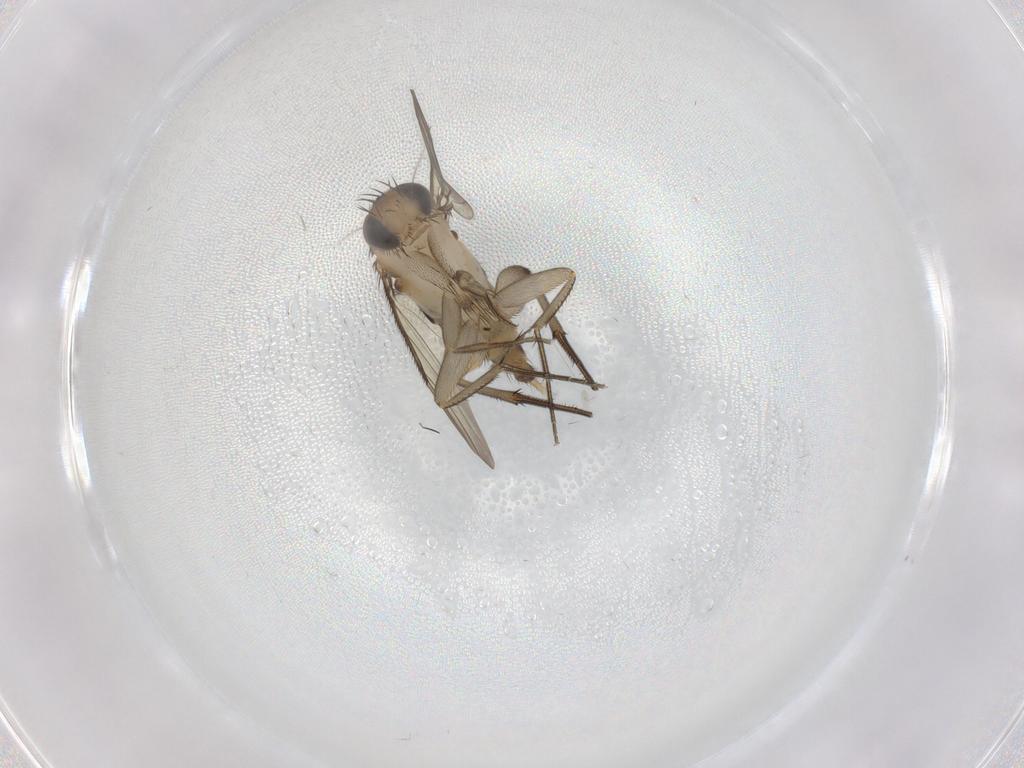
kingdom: Animalia
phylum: Arthropoda
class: Insecta
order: Diptera
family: Phoridae
